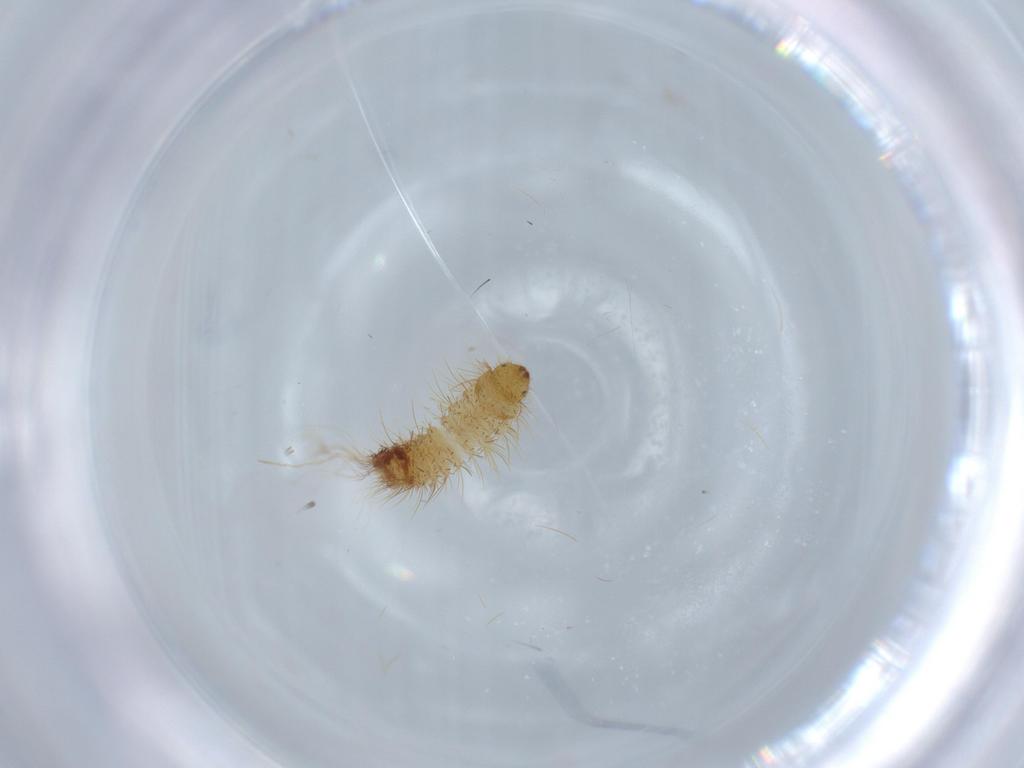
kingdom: Animalia
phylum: Arthropoda
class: Insecta
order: Coleoptera
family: Dermestidae
